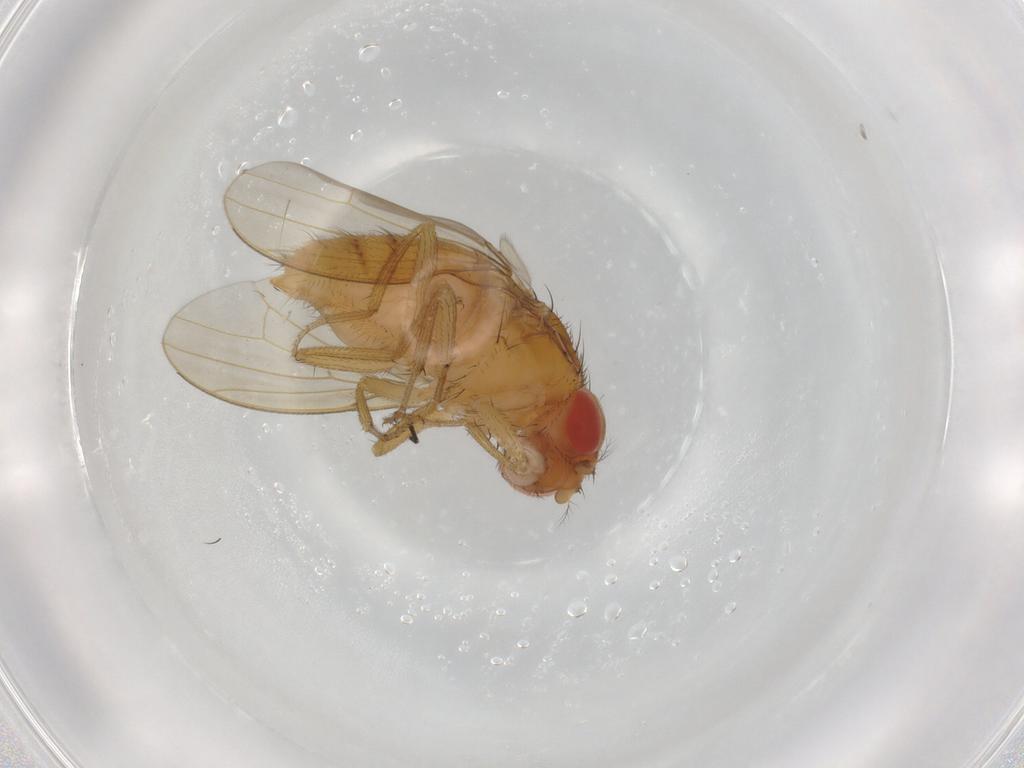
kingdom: Animalia
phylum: Arthropoda
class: Insecta
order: Diptera
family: Drosophilidae
